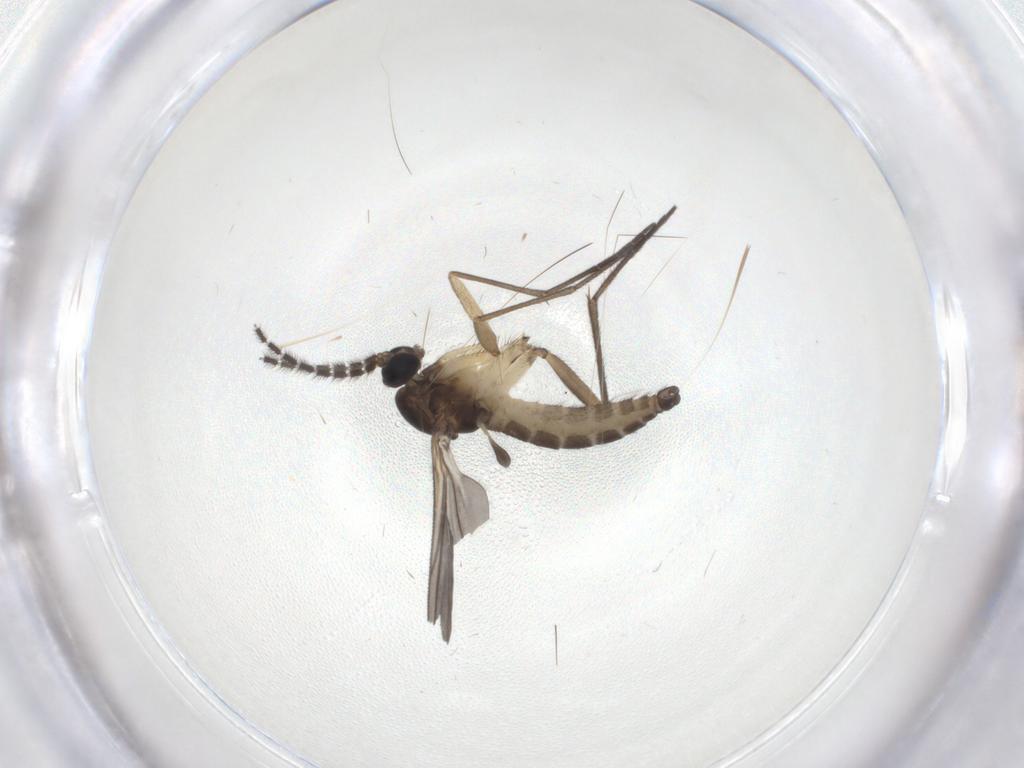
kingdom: Animalia
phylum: Arthropoda
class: Insecta
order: Diptera
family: Sciaridae
